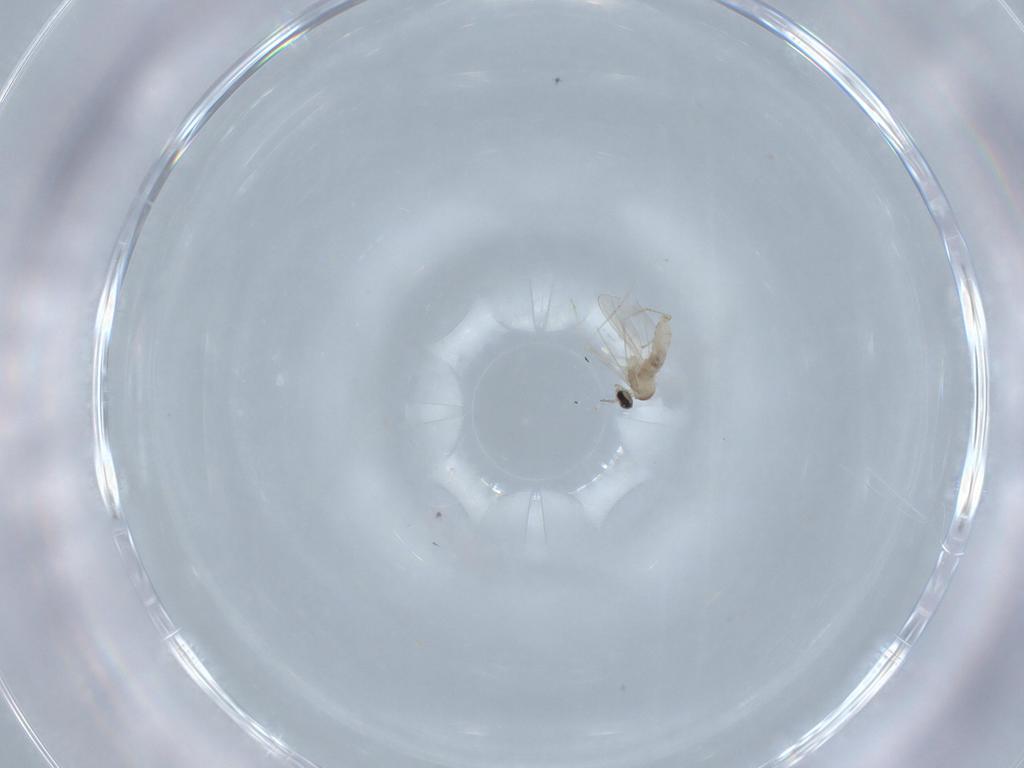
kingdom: Animalia
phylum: Arthropoda
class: Insecta
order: Diptera
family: Cecidomyiidae
